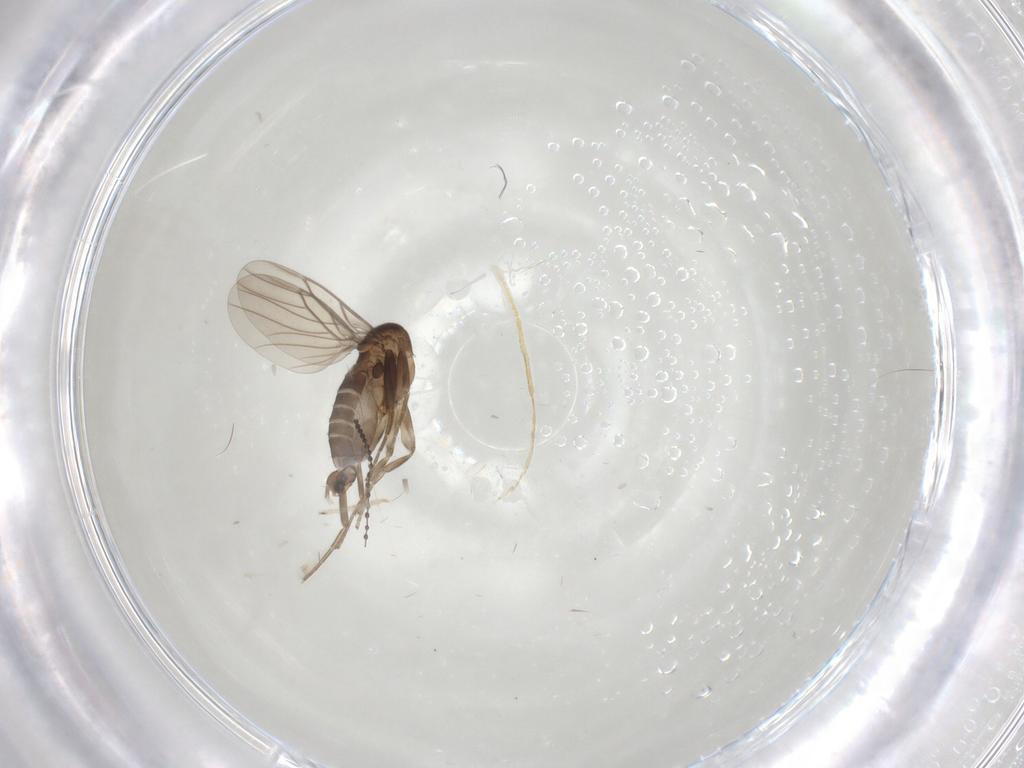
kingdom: Animalia
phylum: Arthropoda
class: Insecta
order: Diptera
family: Phoridae
